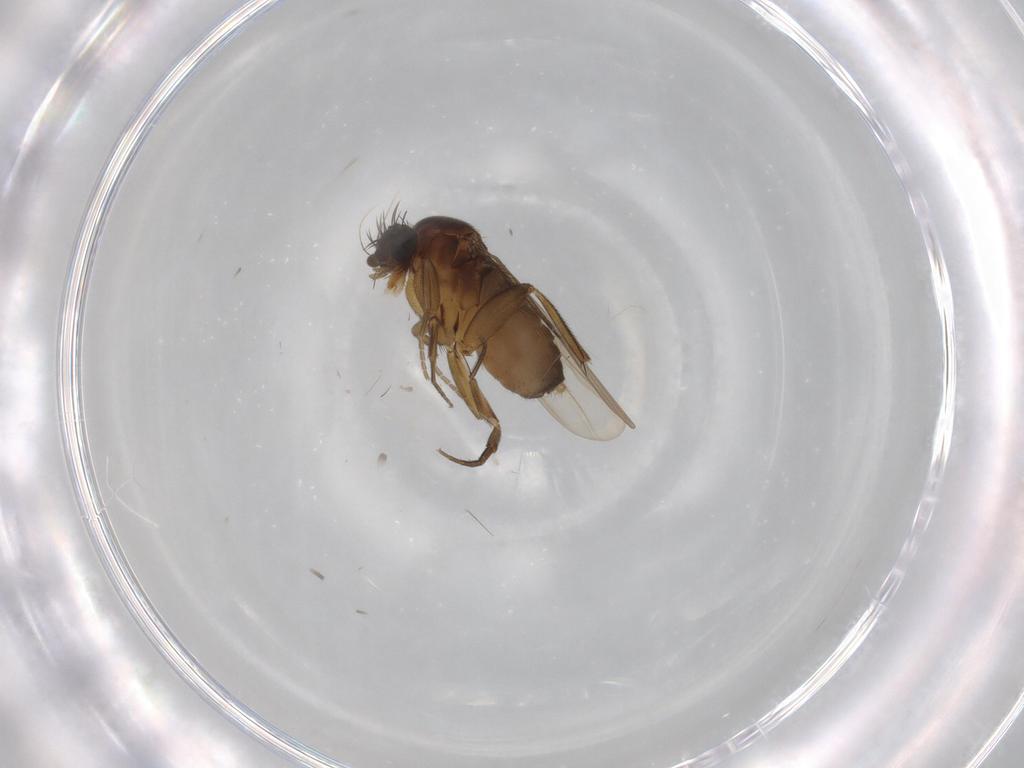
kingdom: Animalia
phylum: Arthropoda
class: Insecta
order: Diptera
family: Phoridae
